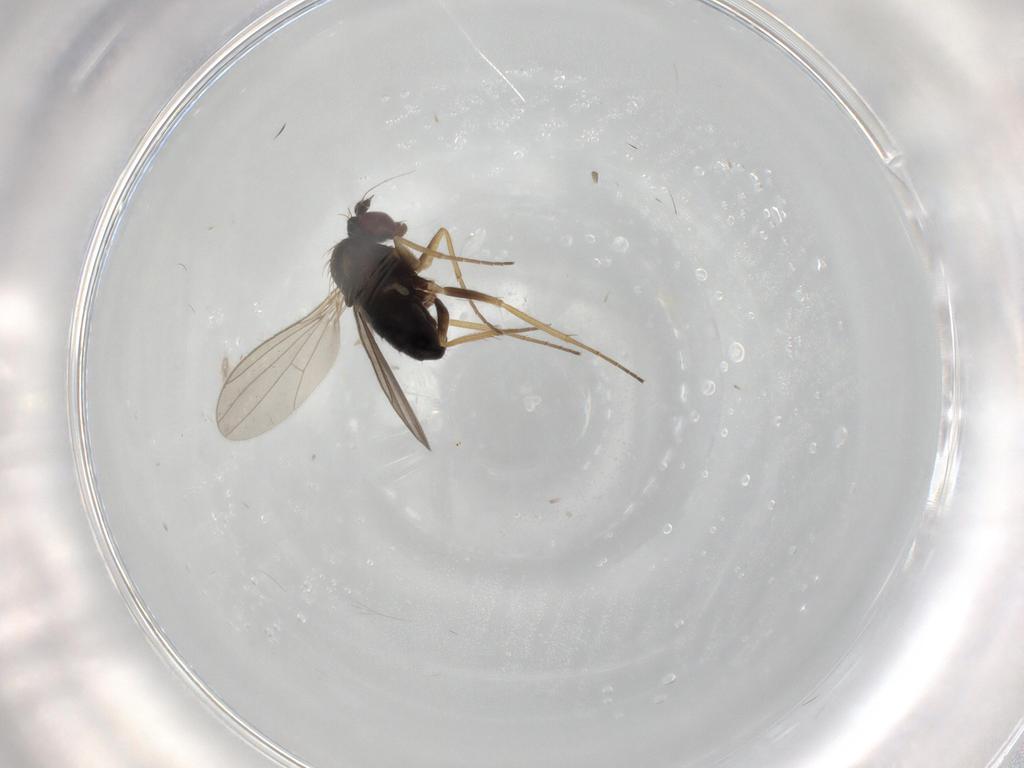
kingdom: Animalia
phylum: Arthropoda
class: Insecta
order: Diptera
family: Dolichopodidae
